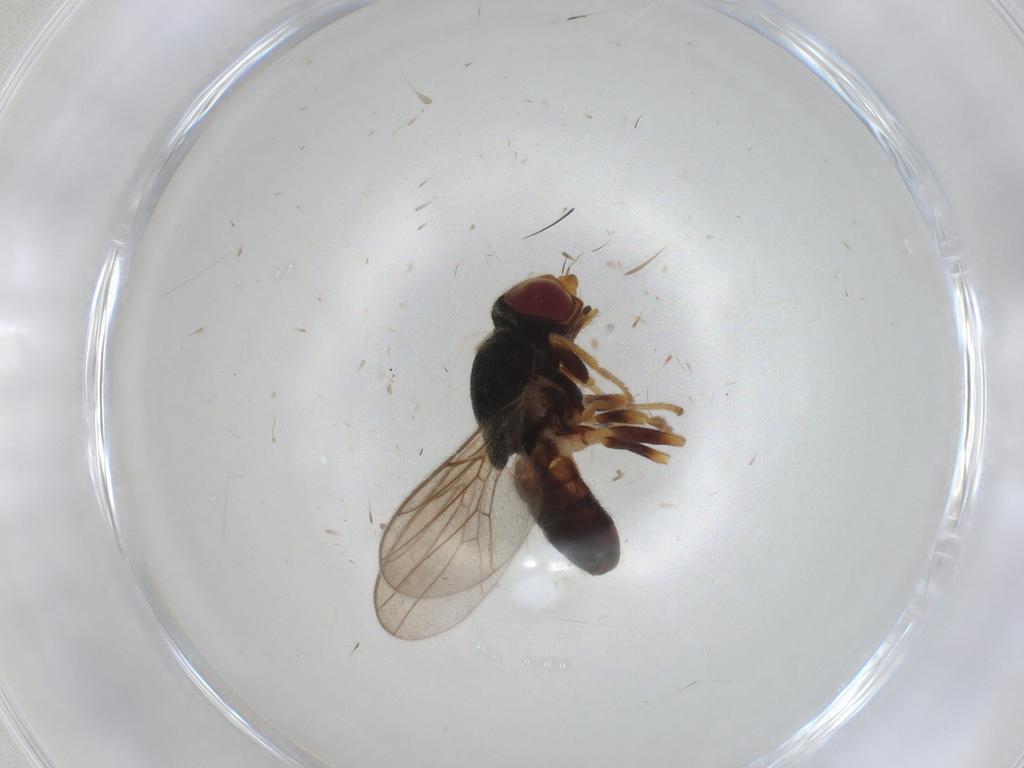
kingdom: Animalia
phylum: Arthropoda
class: Insecta
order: Diptera
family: Chloropidae
